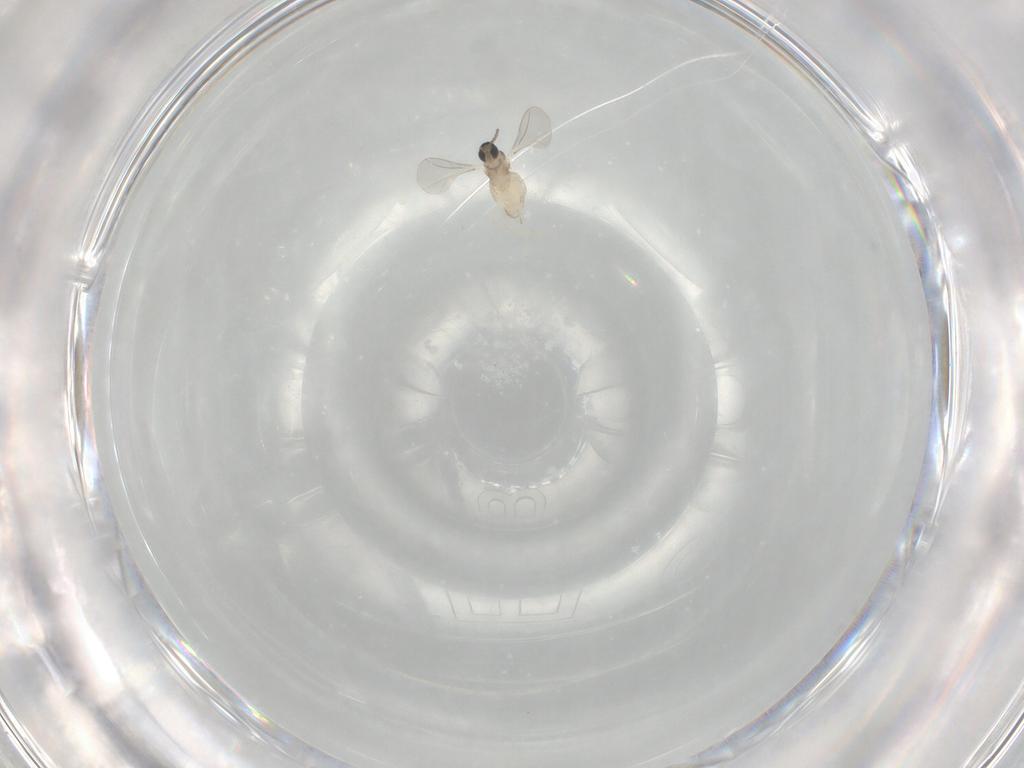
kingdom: Animalia
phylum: Arthropoda
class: Insecta
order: Diptera
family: Cecidomyiidae
